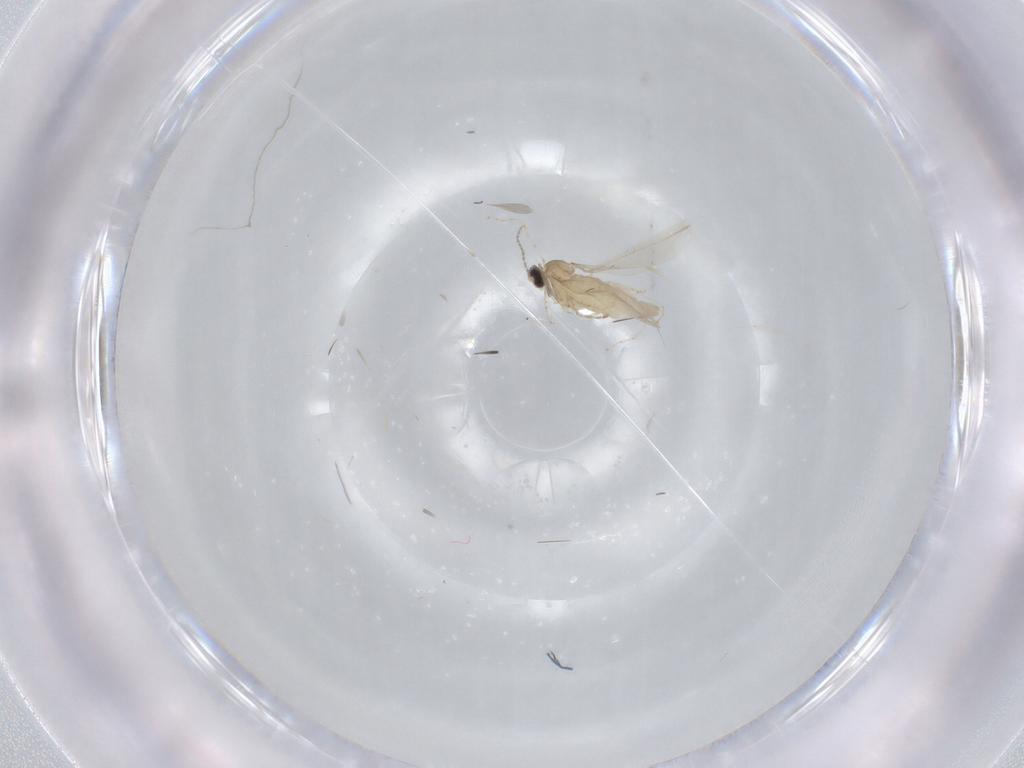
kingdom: Animalia
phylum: Arthropoda
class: Insecta
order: Diptera
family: Cecidomyiidae
